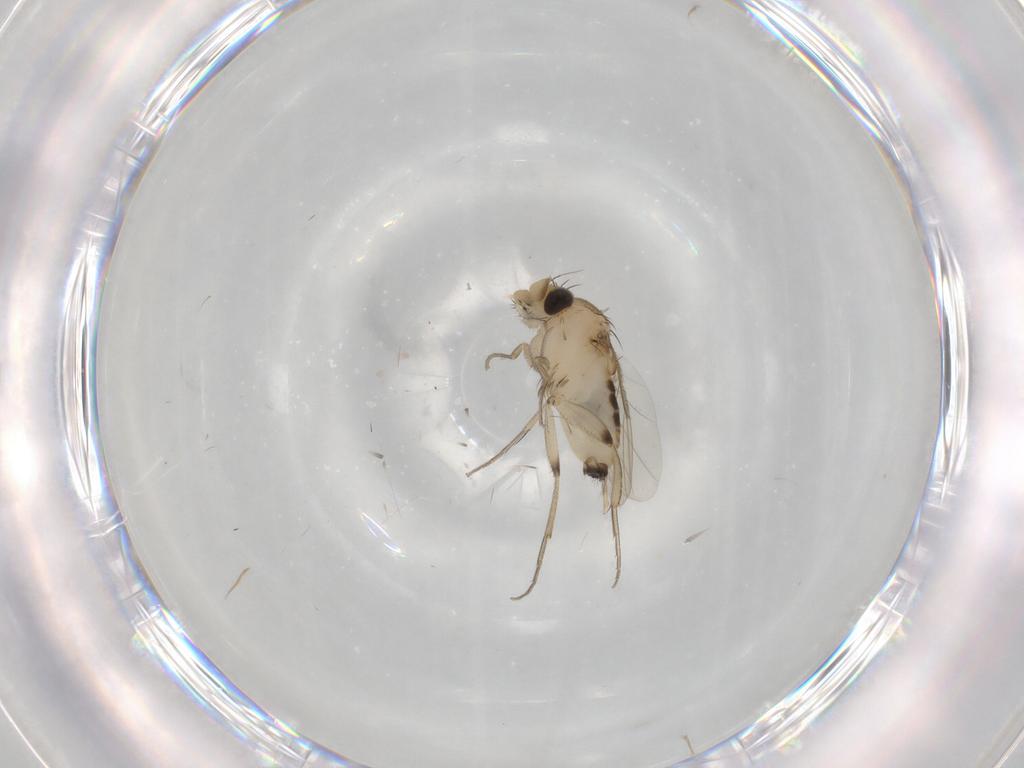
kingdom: Animalia
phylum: Arthropoda
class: Insecta
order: Diptera
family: Phoridae
